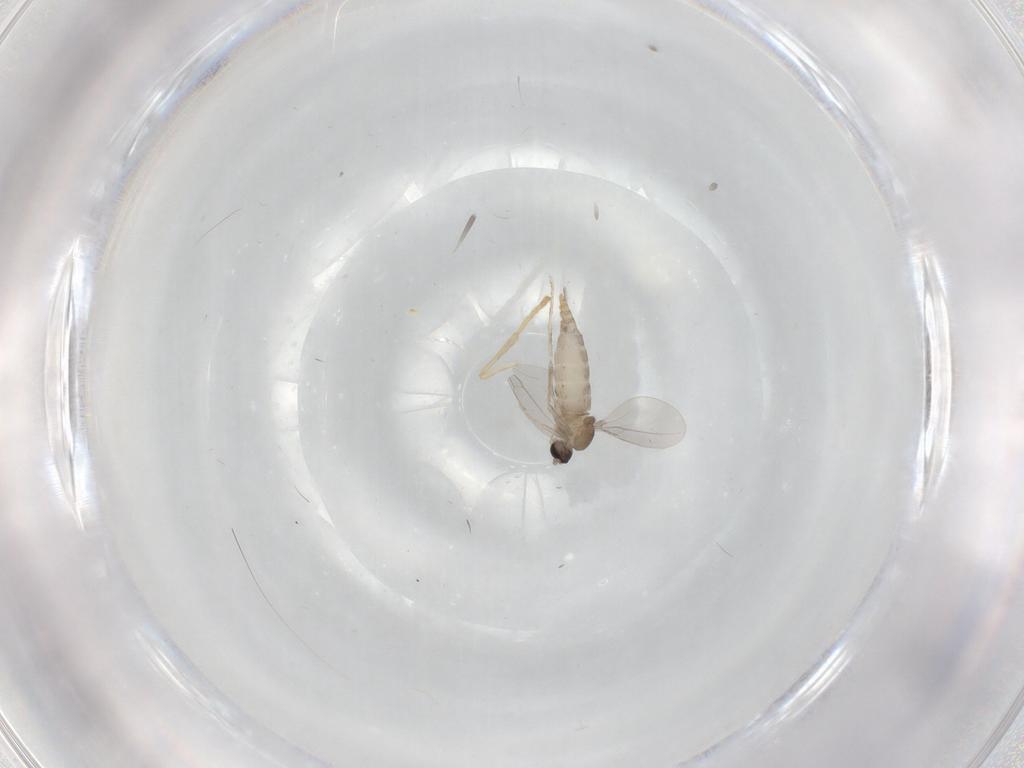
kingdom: Animalia
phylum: Arthropoda
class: Insecta
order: Diptera
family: Cecidomyiidae
